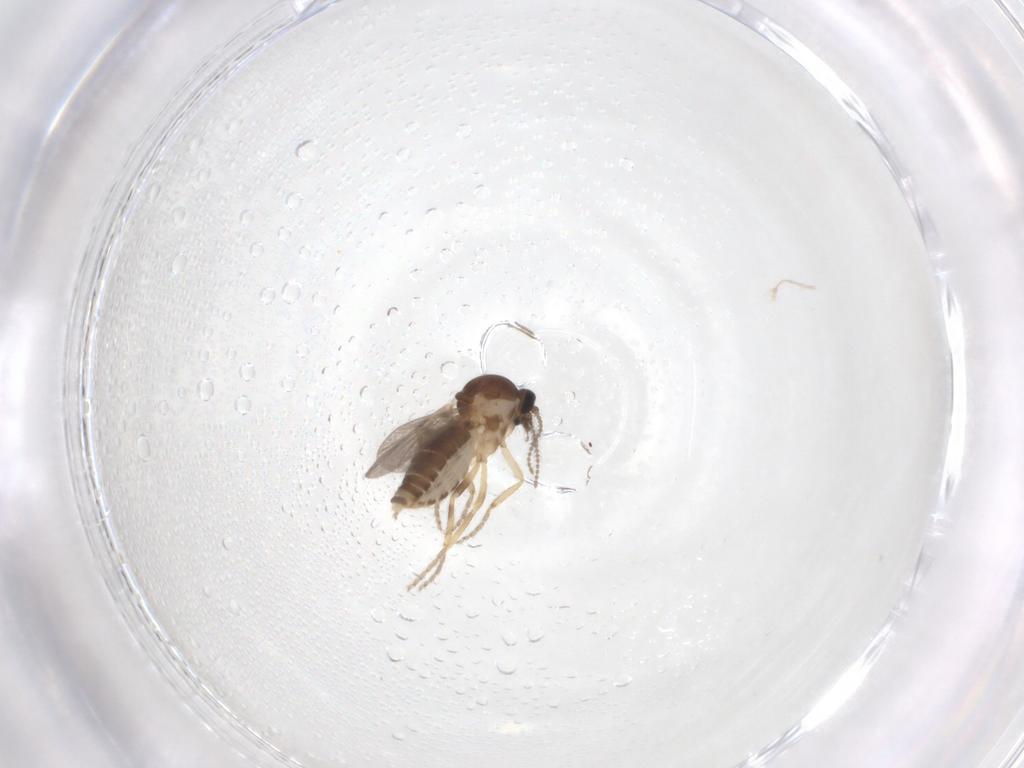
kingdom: Animalia
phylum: Arthropoda
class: Insecta
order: Diptera
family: Ceratopogonidae
